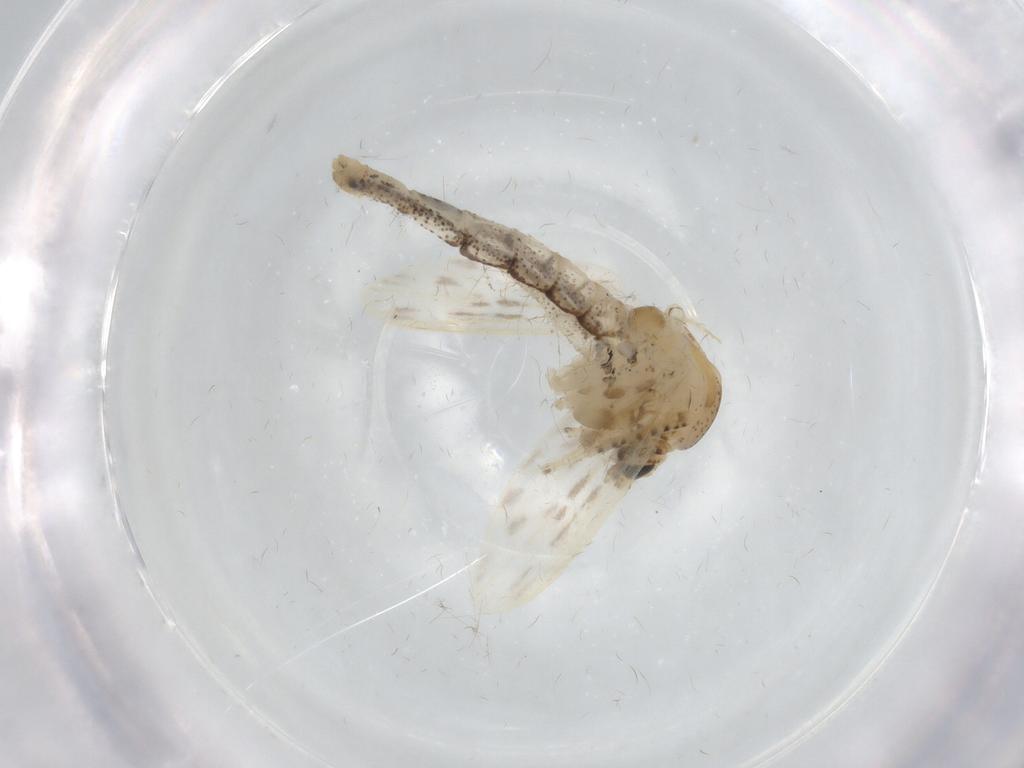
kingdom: Animalia
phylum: Arthropoda
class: Insecta
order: Diptera
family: Chaoboridae
